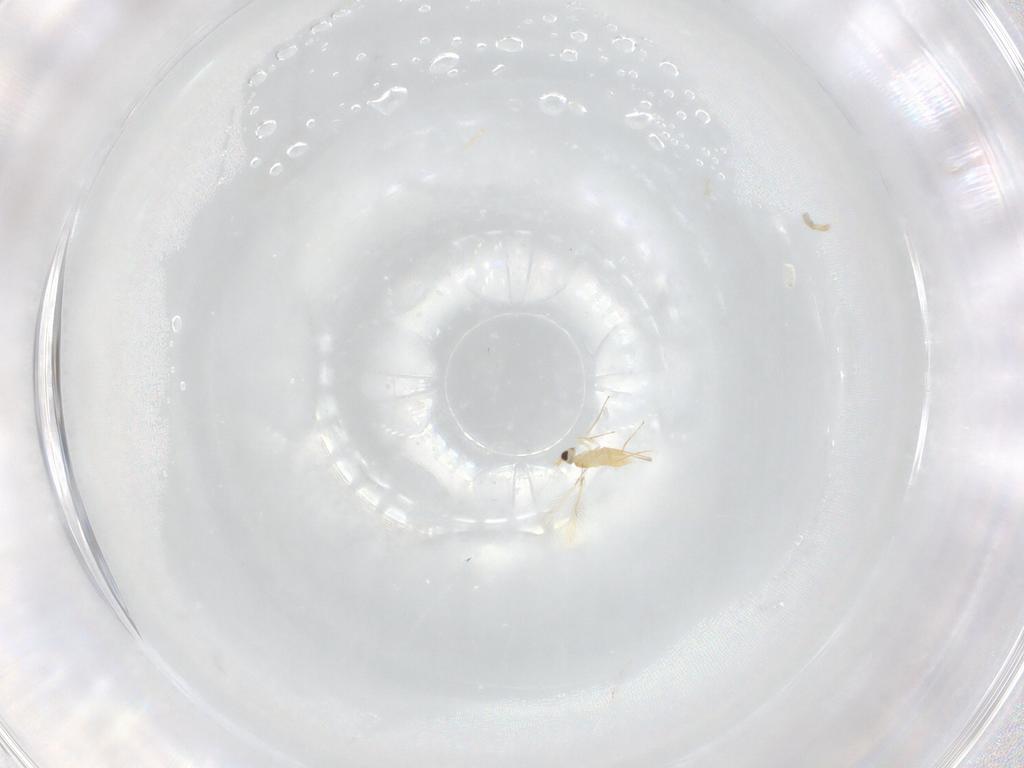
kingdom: Animalia
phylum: Arthropoda
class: Insecta
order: Hymenoptera
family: Mymaridae
